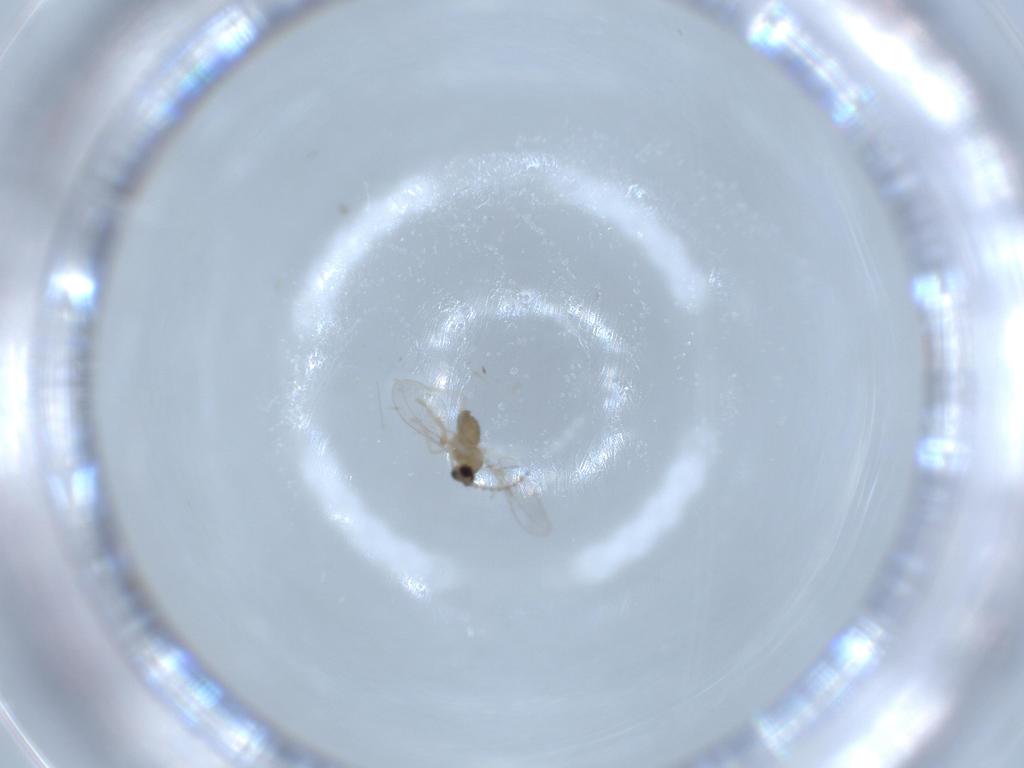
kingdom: Animalia
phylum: Arthropoda
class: Insecta
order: Diptera
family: Cecidomyiidae
